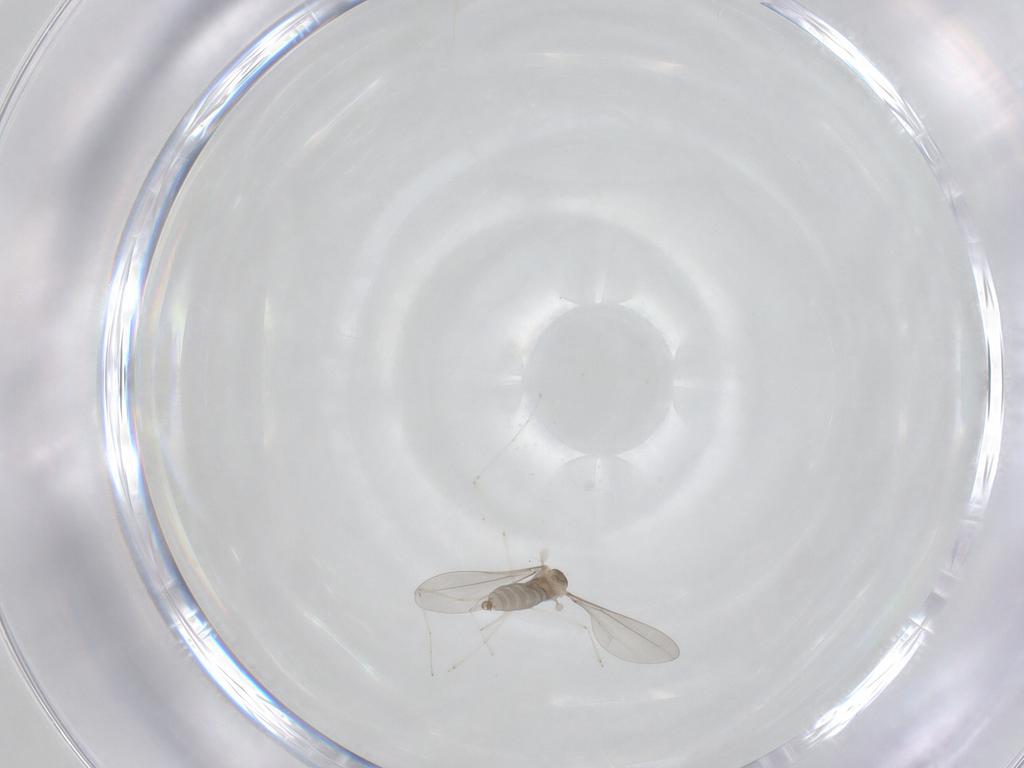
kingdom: Animalia
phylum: Arthropoda
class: Insecta
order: Diptera
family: Cecidomyiidae
